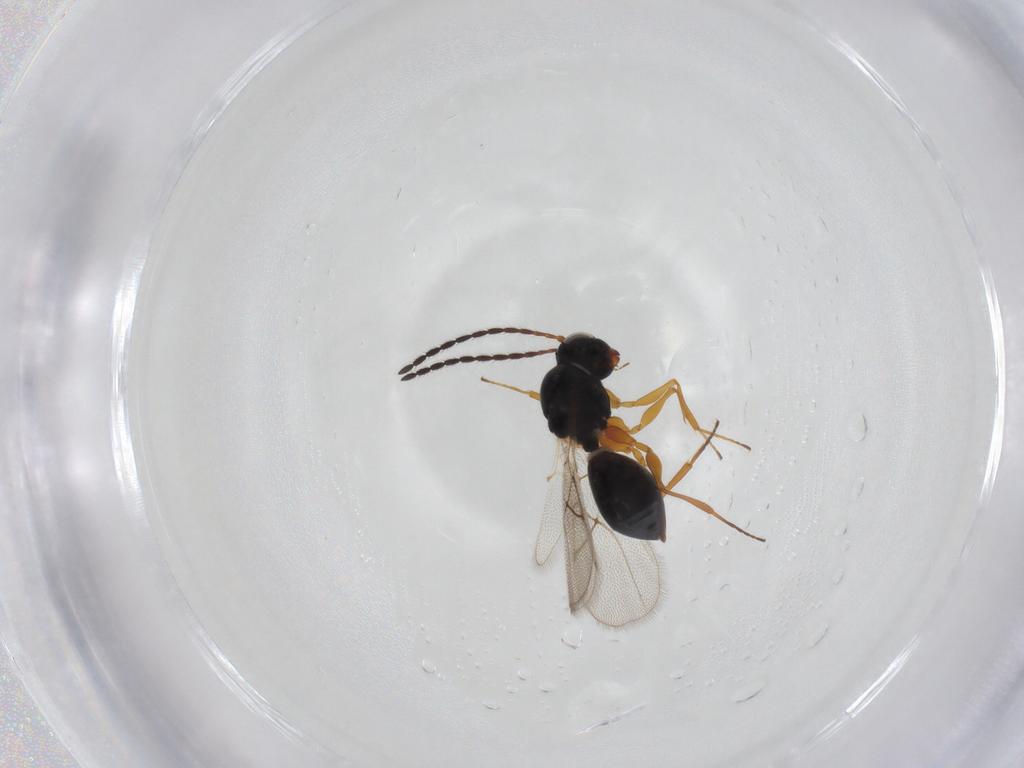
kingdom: Animalia
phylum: Arthropoda
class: Insecta
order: Hymenoptera
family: Figitidae
